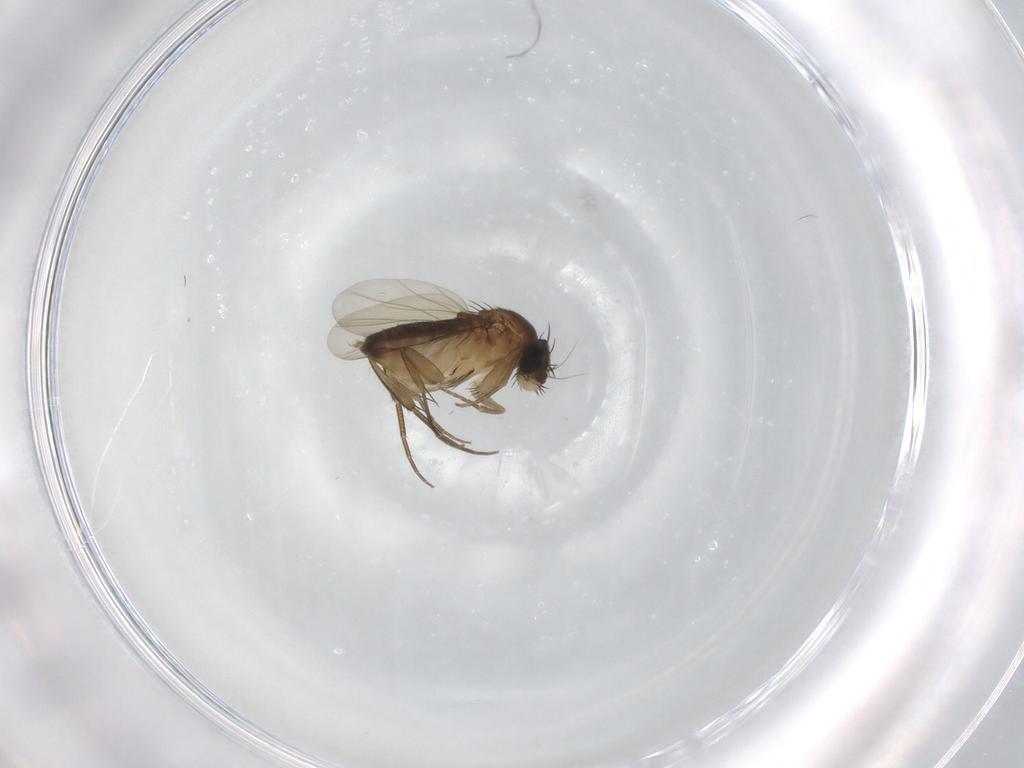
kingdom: Animalia
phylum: Arthropoda
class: Insecta
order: Diptera
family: Phoridae
